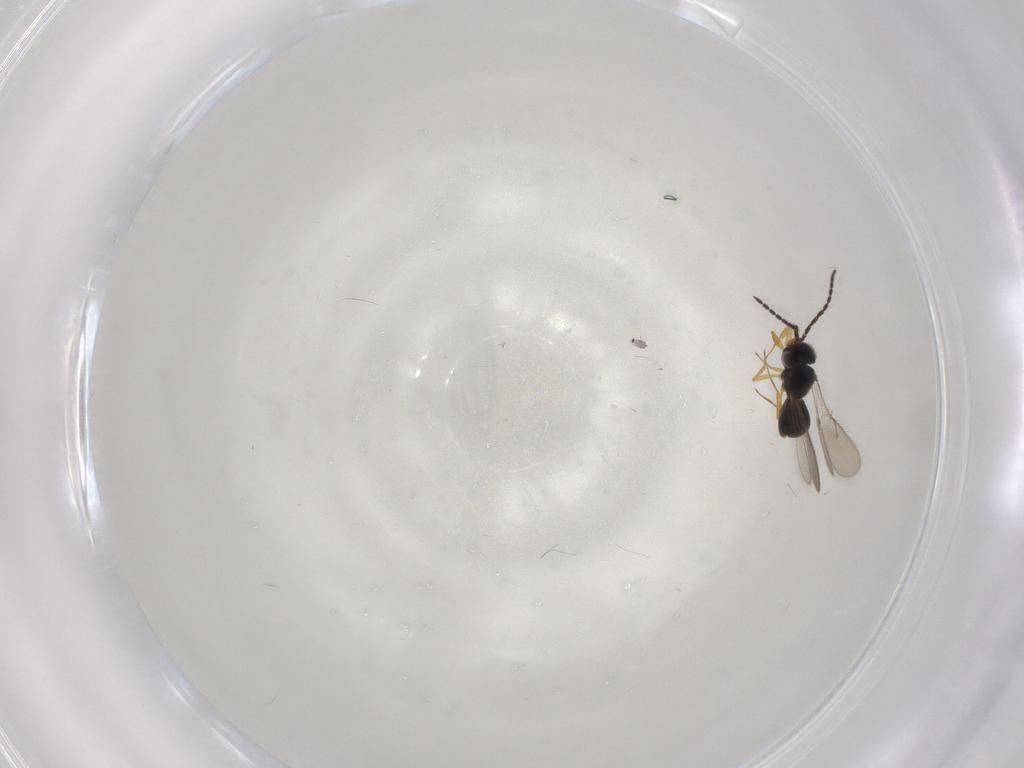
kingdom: Animalia
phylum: Arthropoda
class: Insecta
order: Hymenoptera
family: Scelionidae
